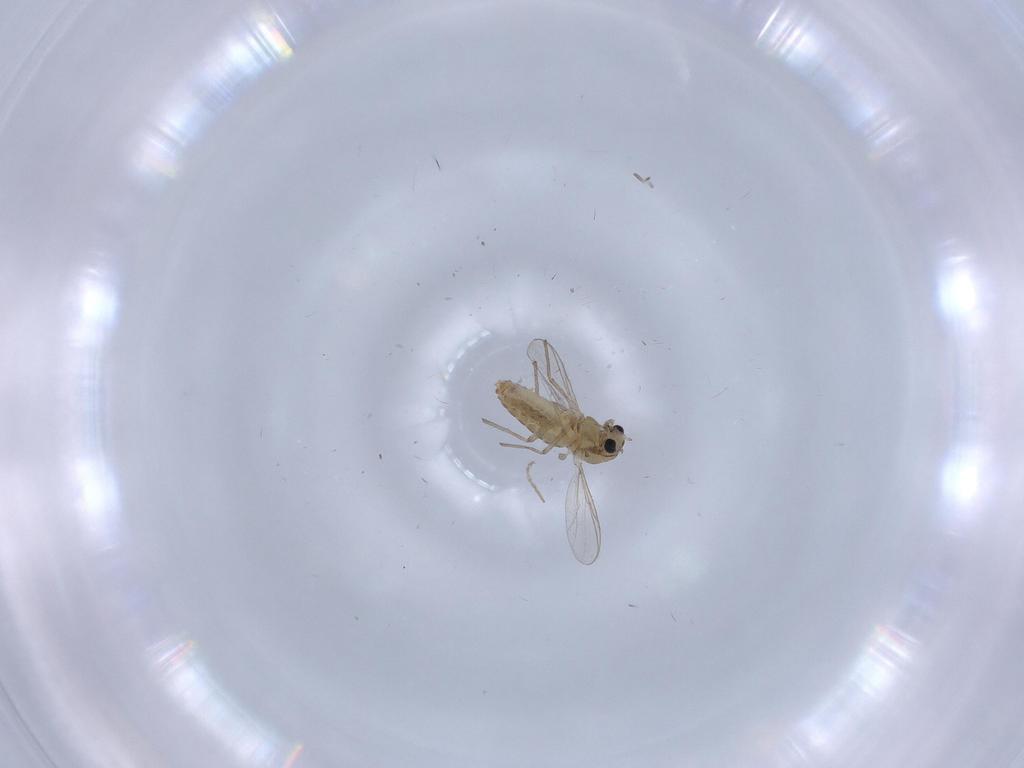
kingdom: Animalia
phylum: Arthropoda
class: Insecta
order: Diptera
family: Chironomidae
